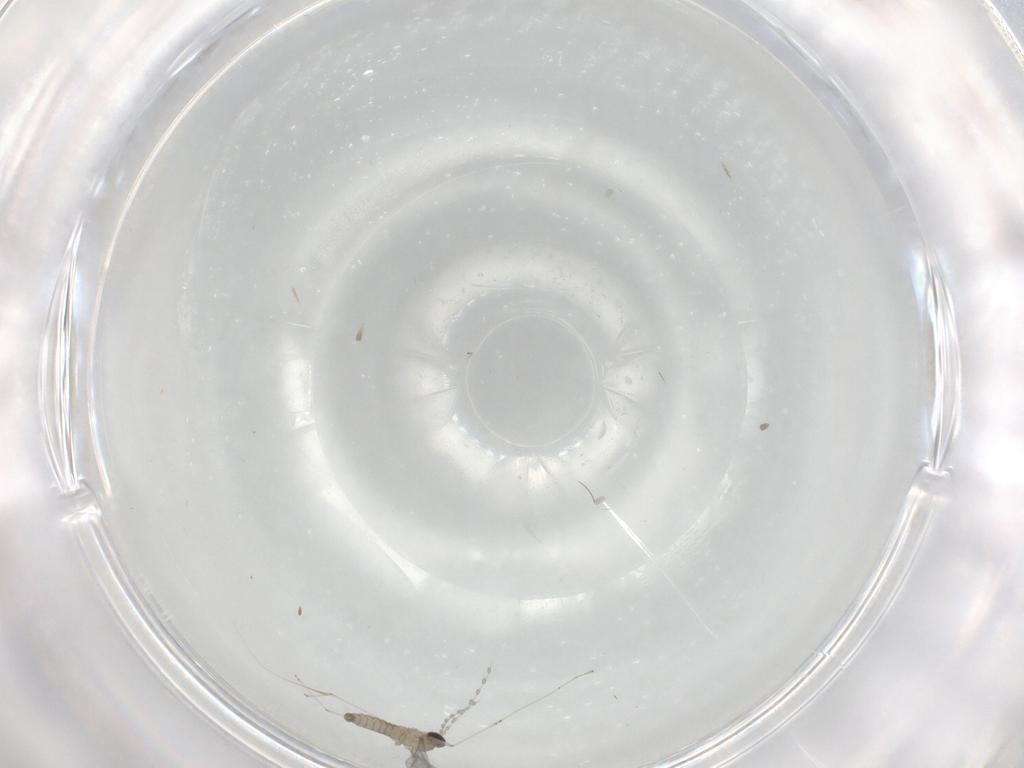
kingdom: Animalia
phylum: Arthropoda
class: Insecta
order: Diptera
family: Cecidomyiidae
